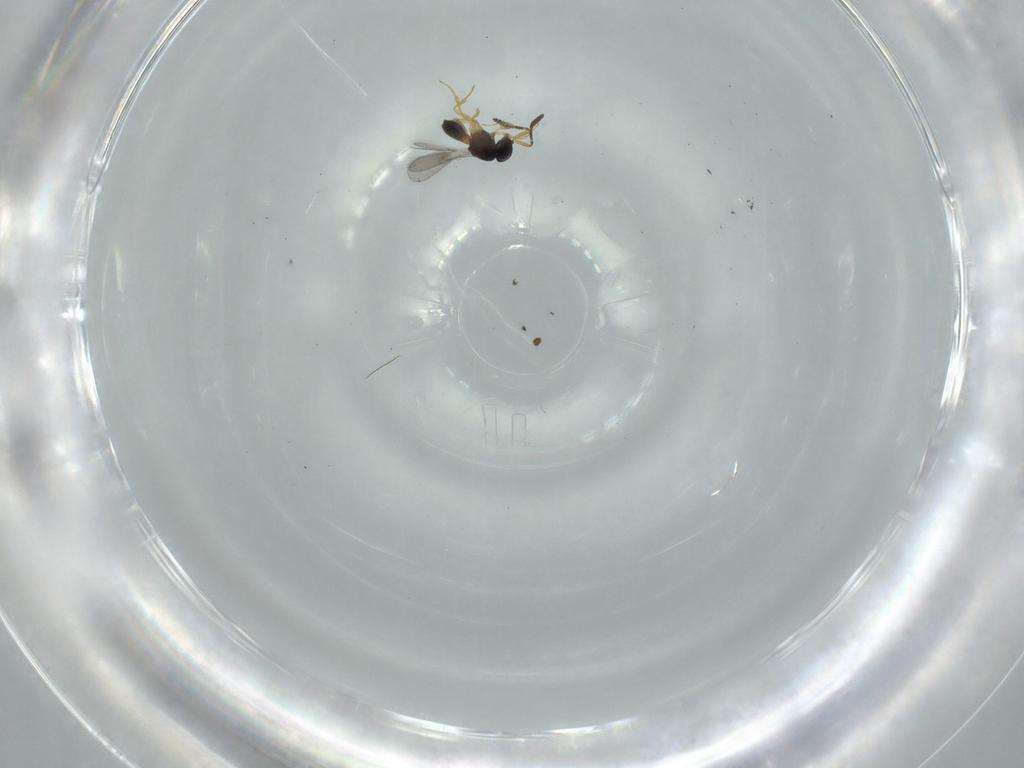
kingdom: Animalia
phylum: Arthropoda
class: Insecta
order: Hymenoptera
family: Scelionidae
